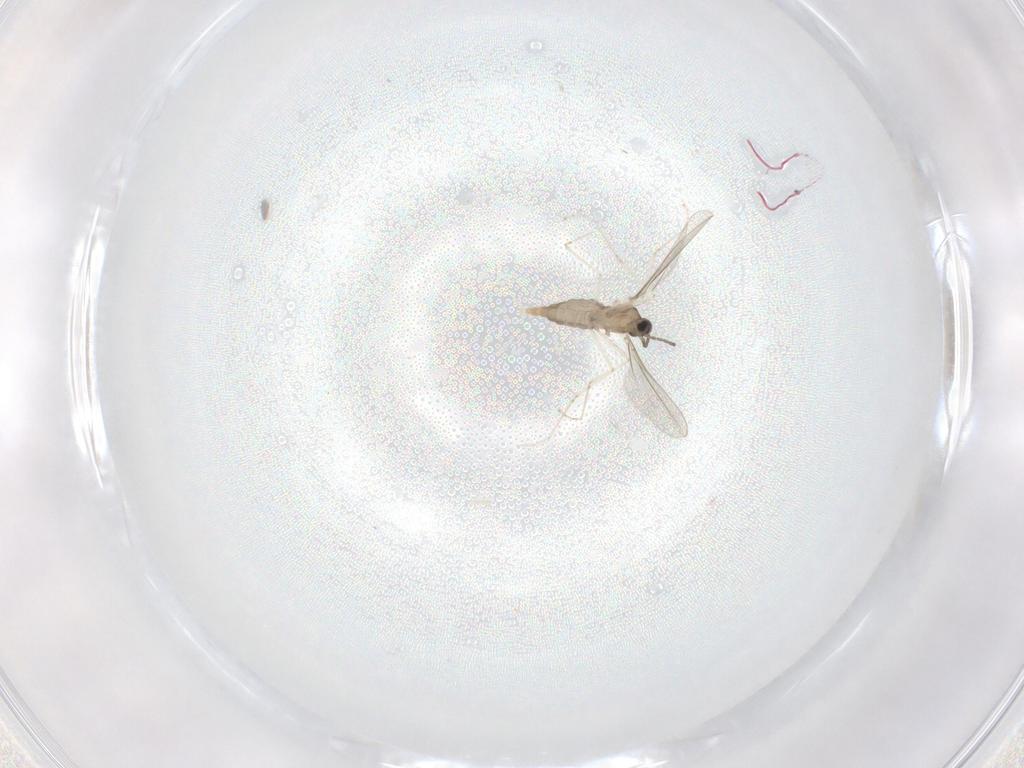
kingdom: Animalia
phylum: Arthropoda
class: Insecta
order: Diptera
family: Cecidomyiidae
